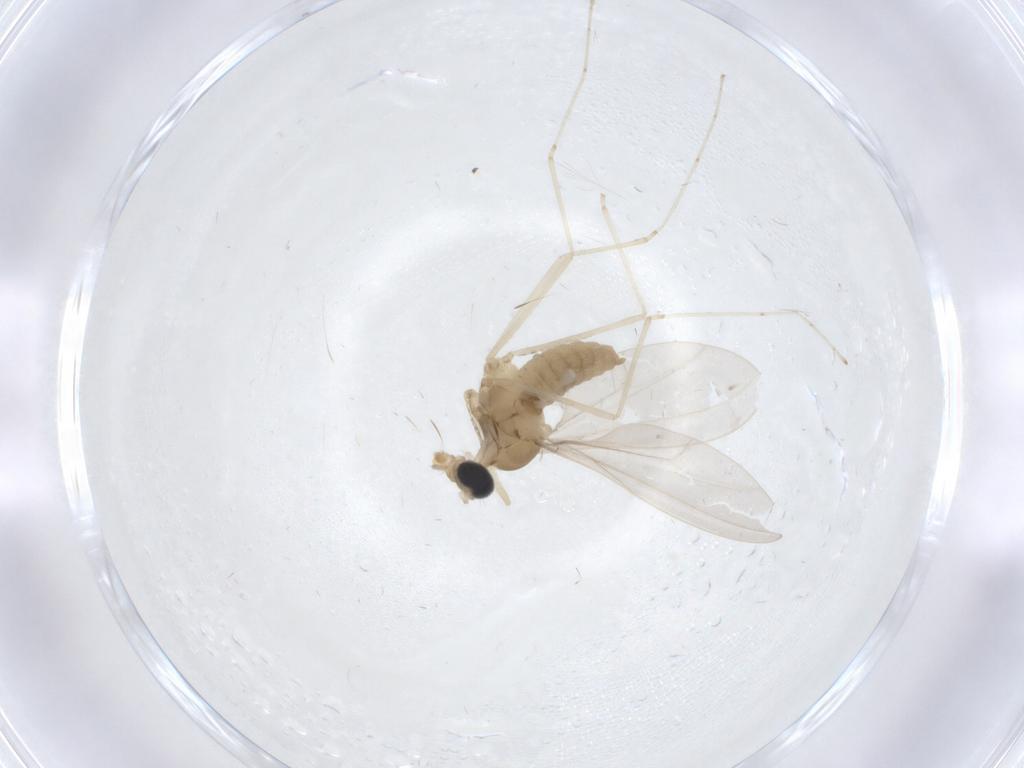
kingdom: Animalia
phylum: Arthropoda
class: Insecta
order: Diptera
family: Cecidomyiidae
